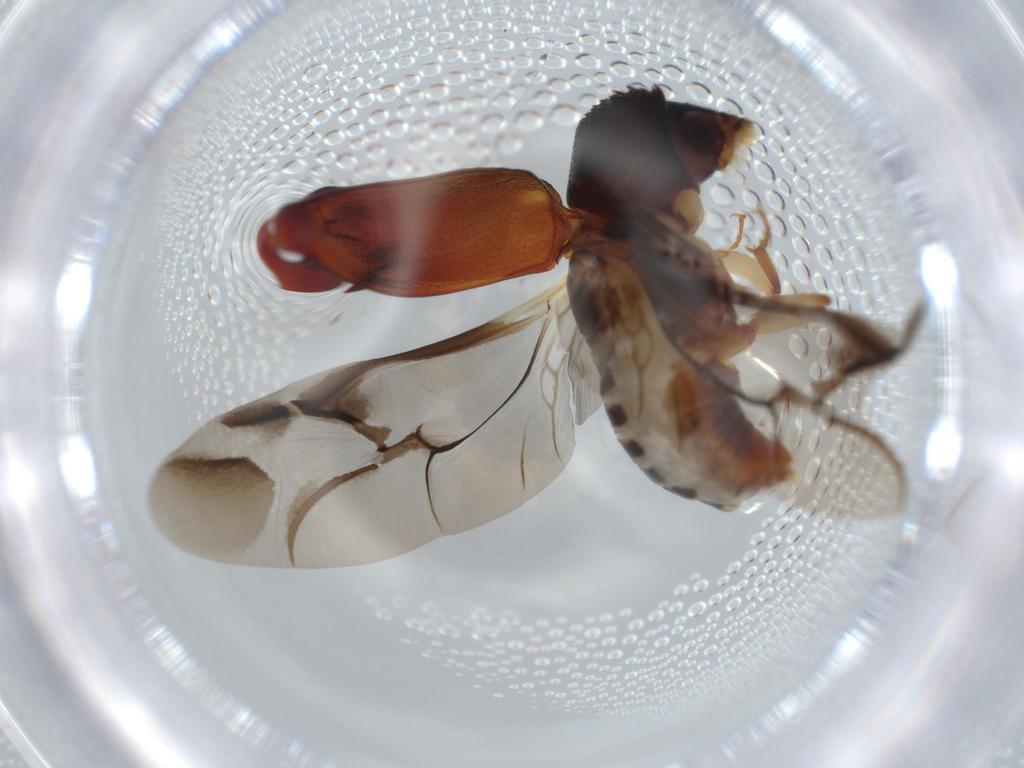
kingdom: Animalia
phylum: Arthropoda
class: Insecta
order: Coleoptera
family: Bostrichidae
